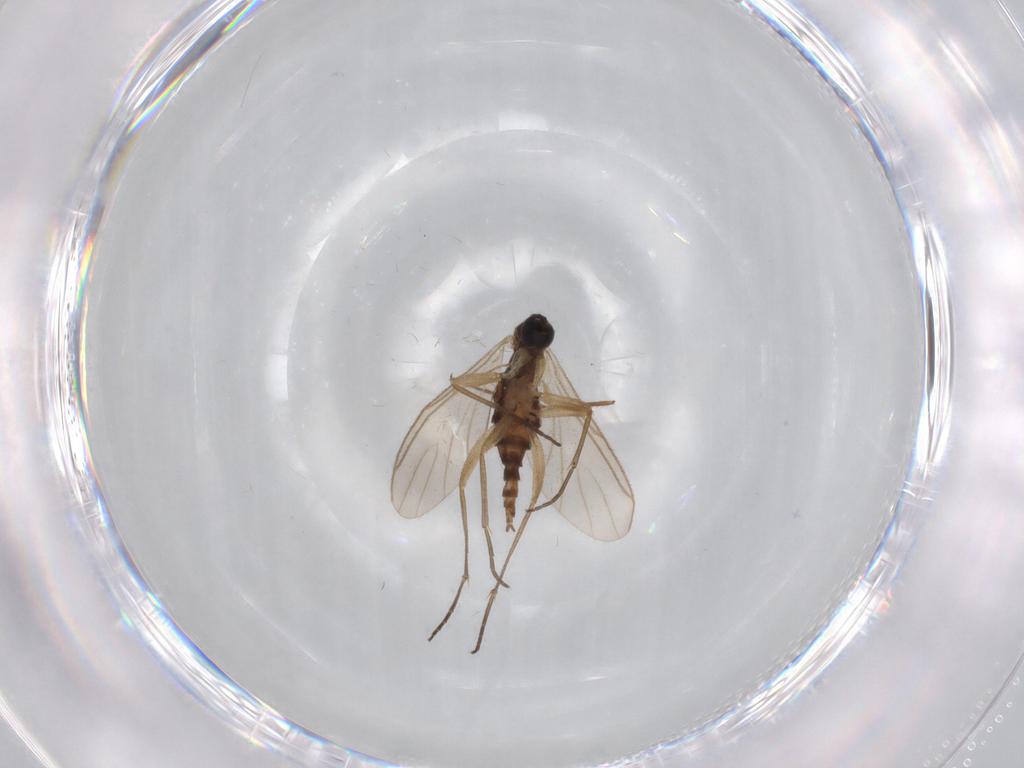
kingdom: Animalia
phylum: Arthropoda
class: Insecta
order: Diptera
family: Sciaridae
